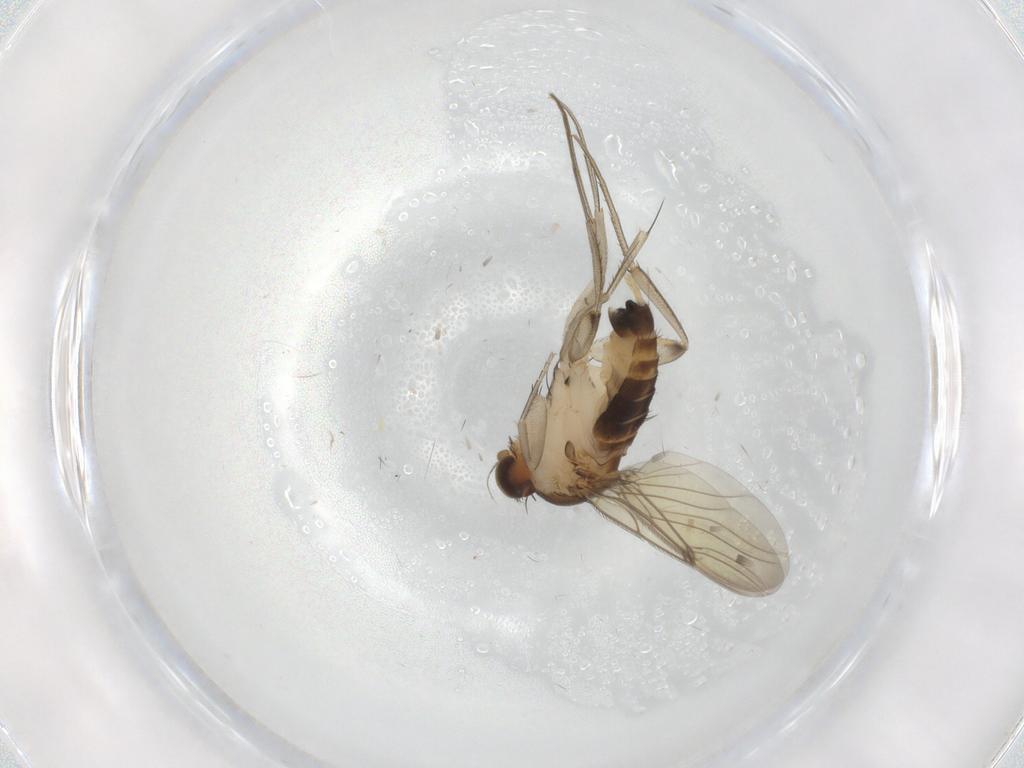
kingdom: Animalia
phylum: Arthropoda
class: Insecta
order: Diptera
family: Phoridae
